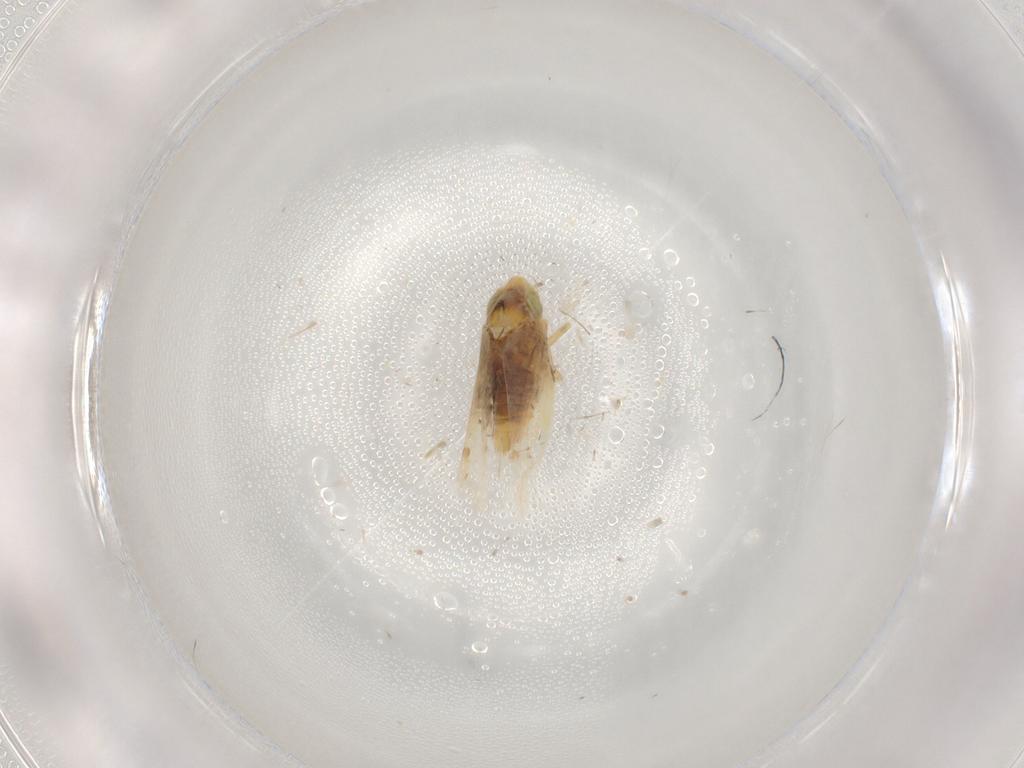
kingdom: Animalia
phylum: Arthropoda
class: Insecta
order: Hemiptera
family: Cicadellidae
